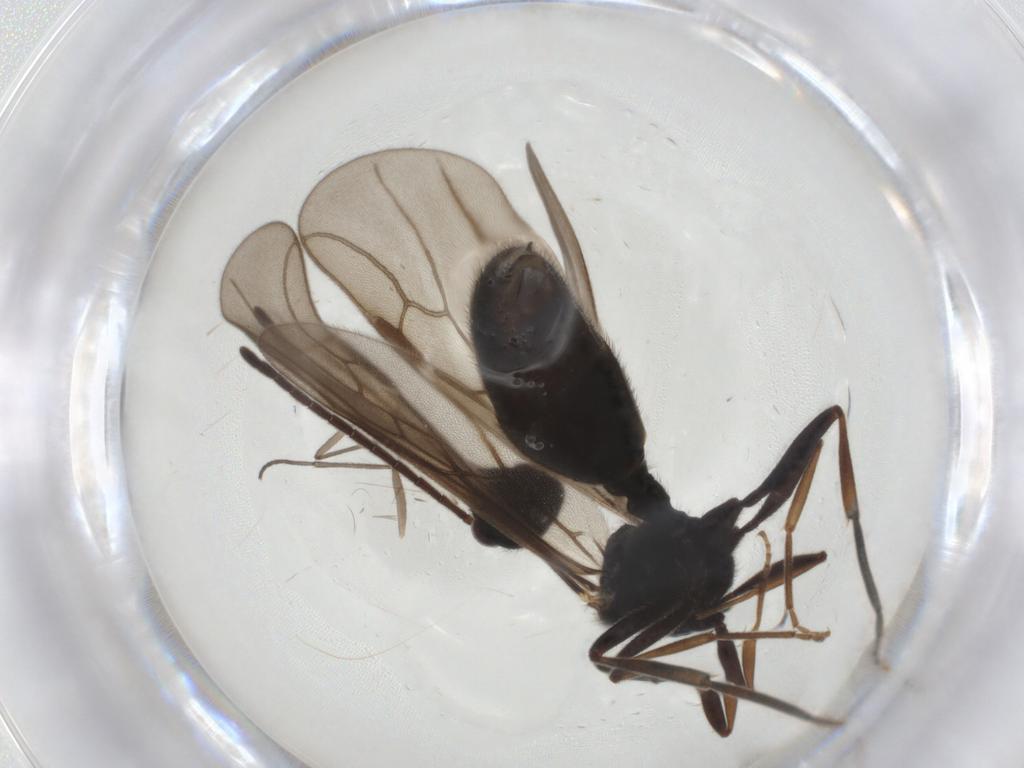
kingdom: Animalia
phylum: Arthropoda
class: Insecta
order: Hymenoptera
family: Formicidae
